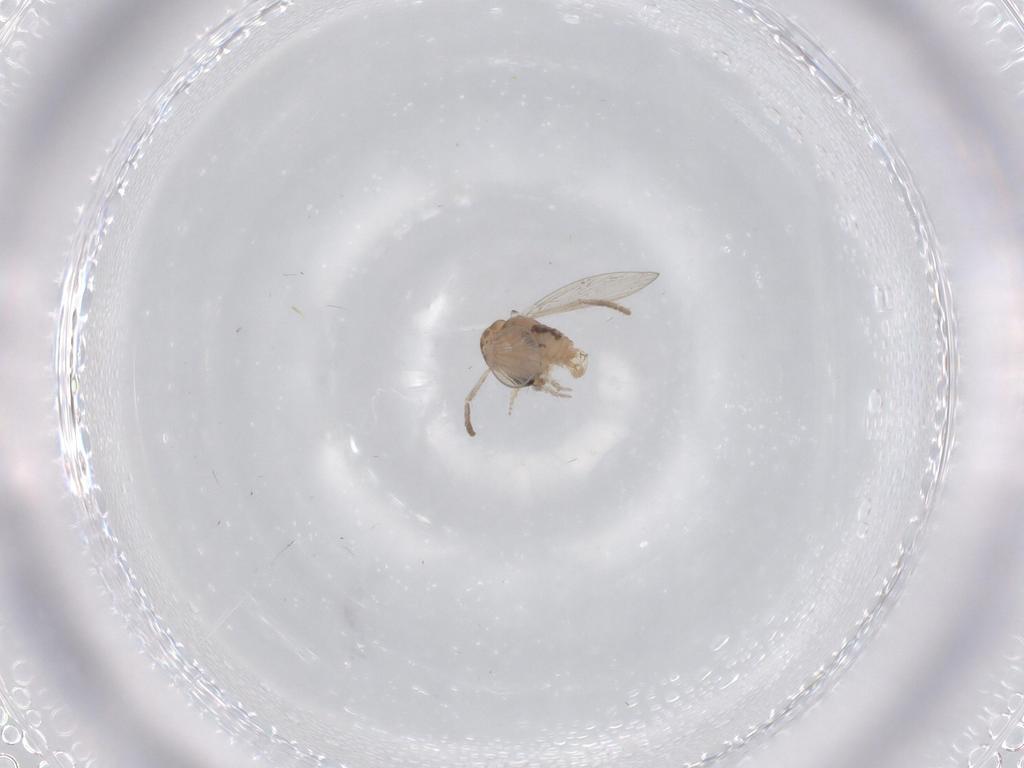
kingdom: Animalia
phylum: Arthropoda
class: Insecta
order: Diptera
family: Psychodidae
